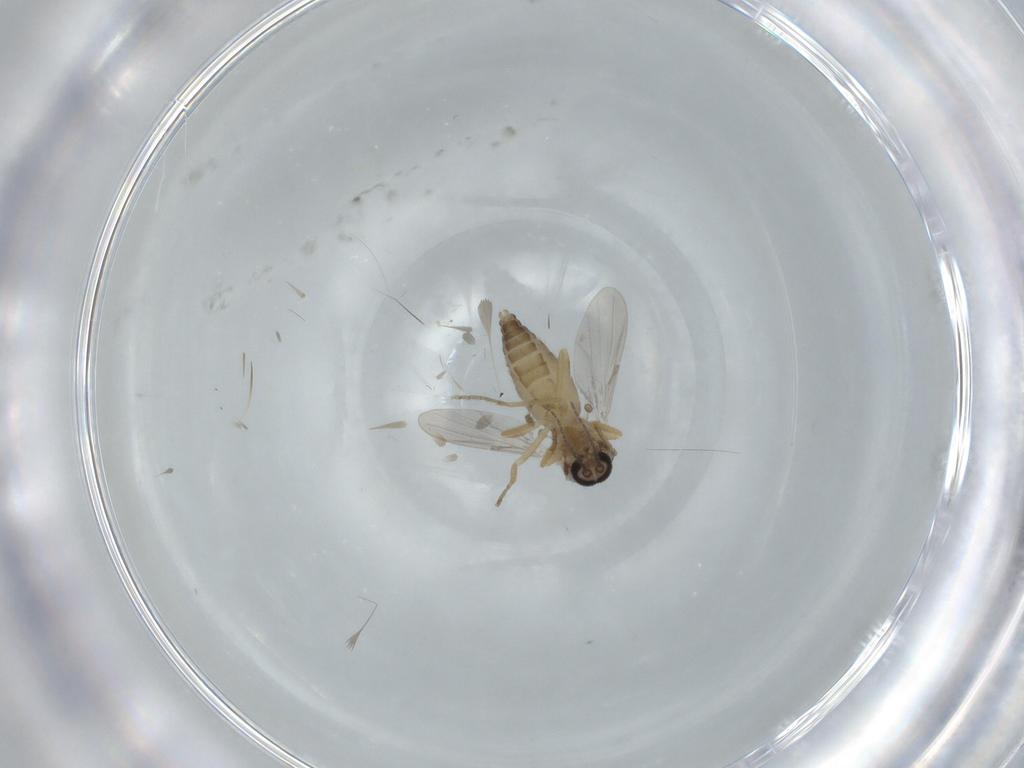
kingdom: Animalia
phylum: Arthropoda
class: Insecta
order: Diptera
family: Ceratopogonidae
